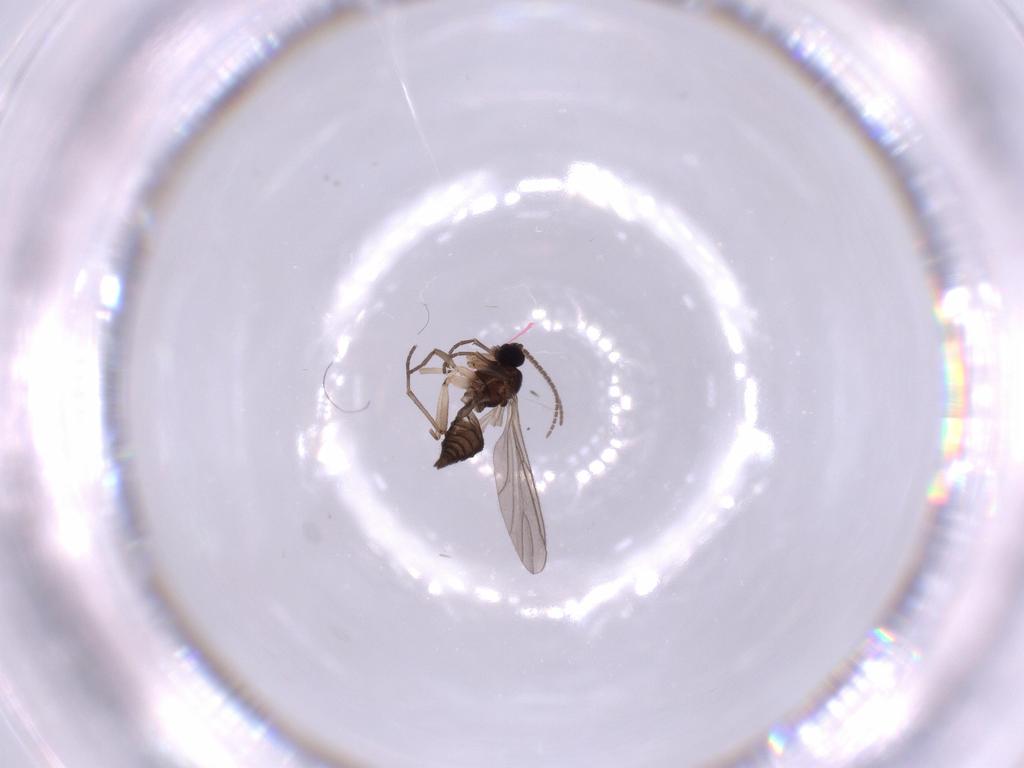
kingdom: Animalia
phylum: Arthropoda
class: Insecta
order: Diptera
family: Sciaridae
